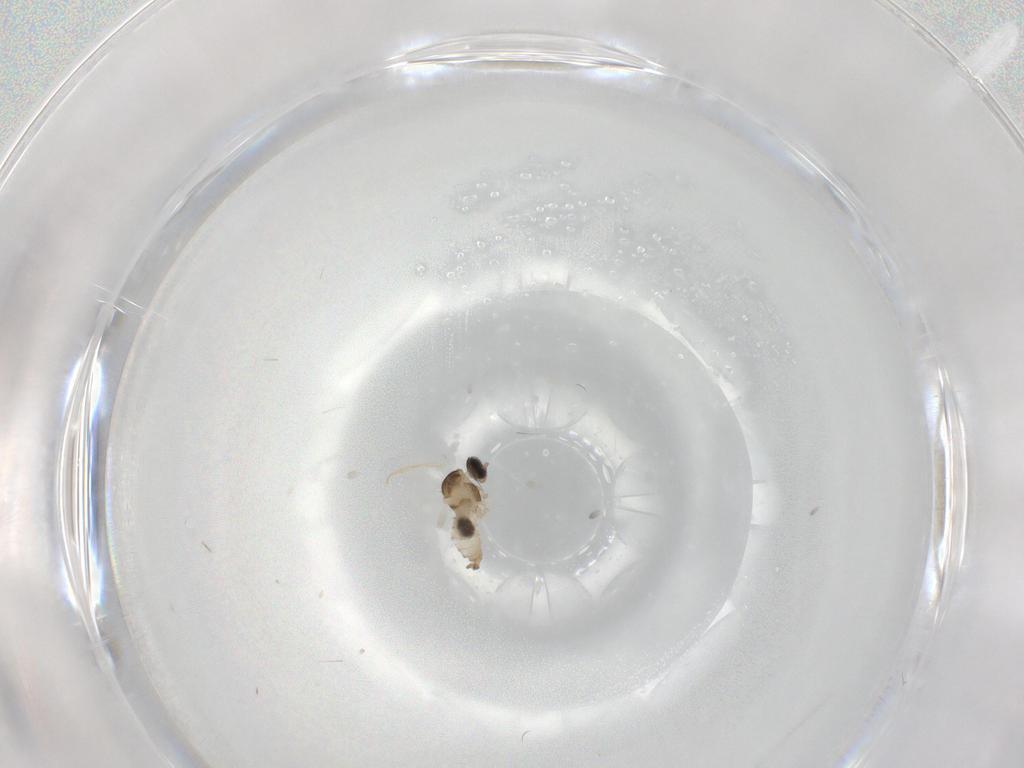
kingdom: Animalia
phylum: Arthropoda
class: Insecta
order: Diptera
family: Cecidomyiidae
